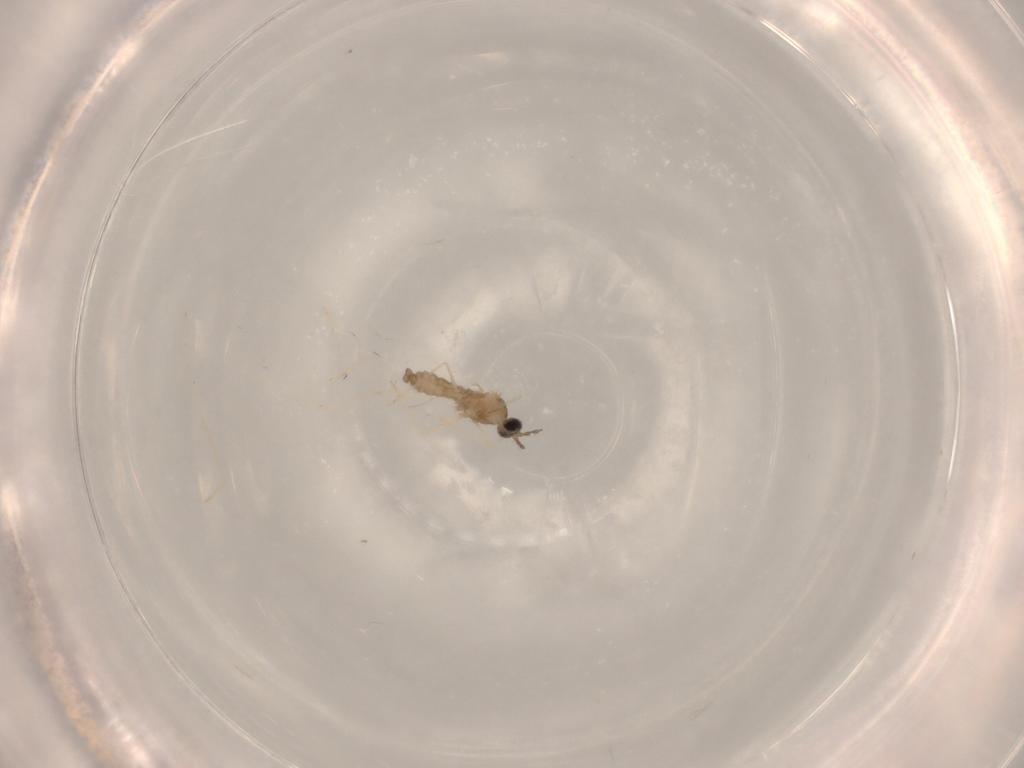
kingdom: Animalia
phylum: Arthropoda
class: Insecta
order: Diptera
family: Cecidomyiidae
